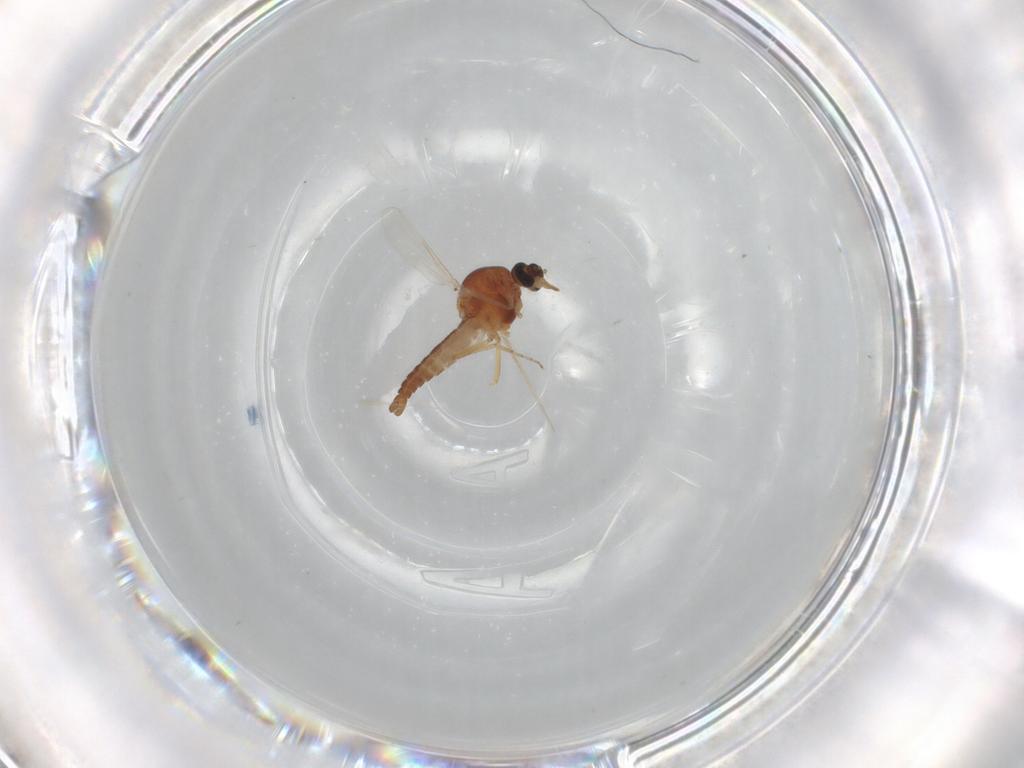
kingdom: Animalia
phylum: Arthropoda
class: Insecta
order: Diptera
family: Ceratopogonidae
